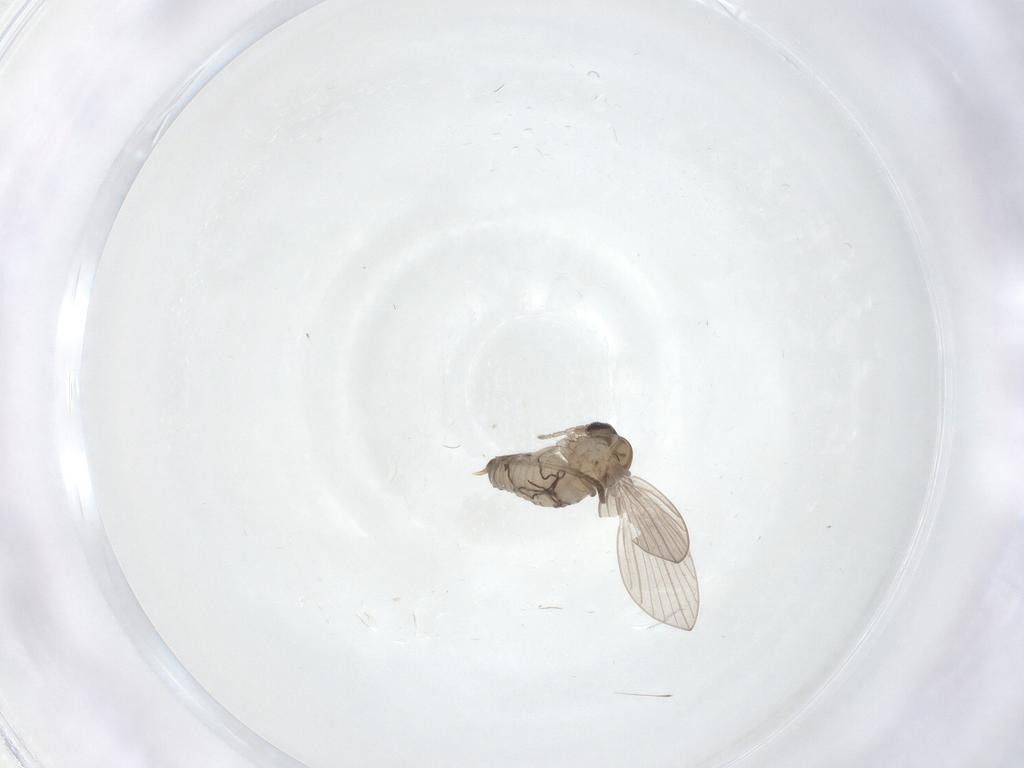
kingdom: Animalia
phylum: Arthropoda
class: Insecta
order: Diptera
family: Psychodidae
